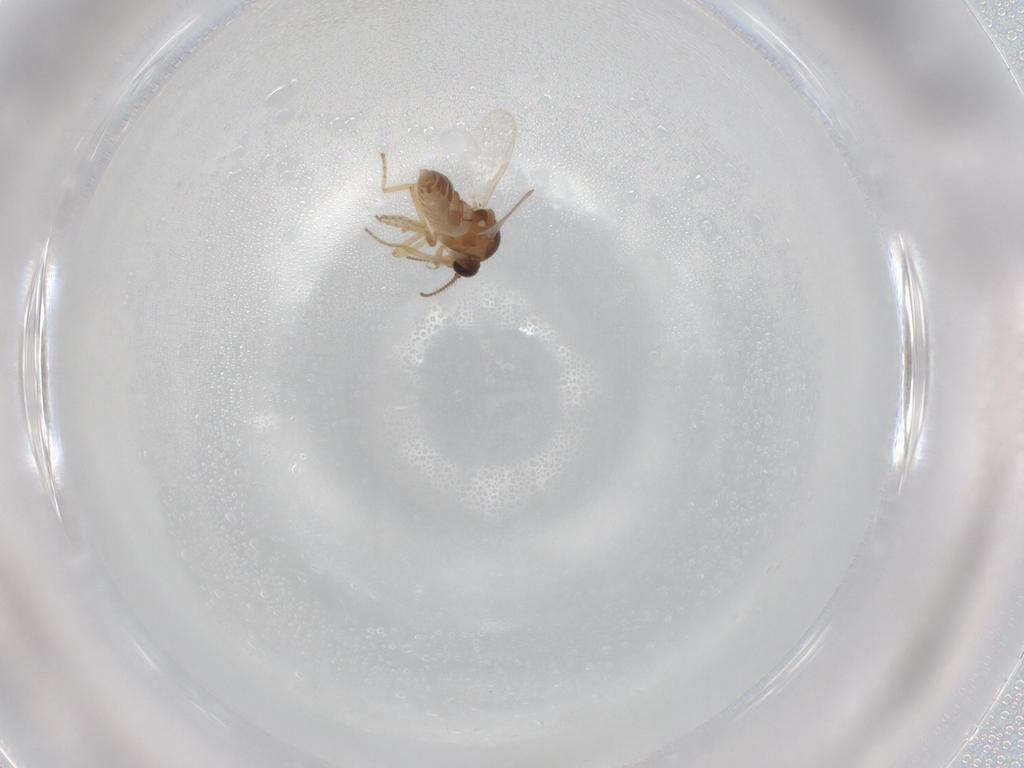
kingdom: Animalia
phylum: Arthropoda
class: Insecta
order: Diptera
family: Ceratopogonidae
